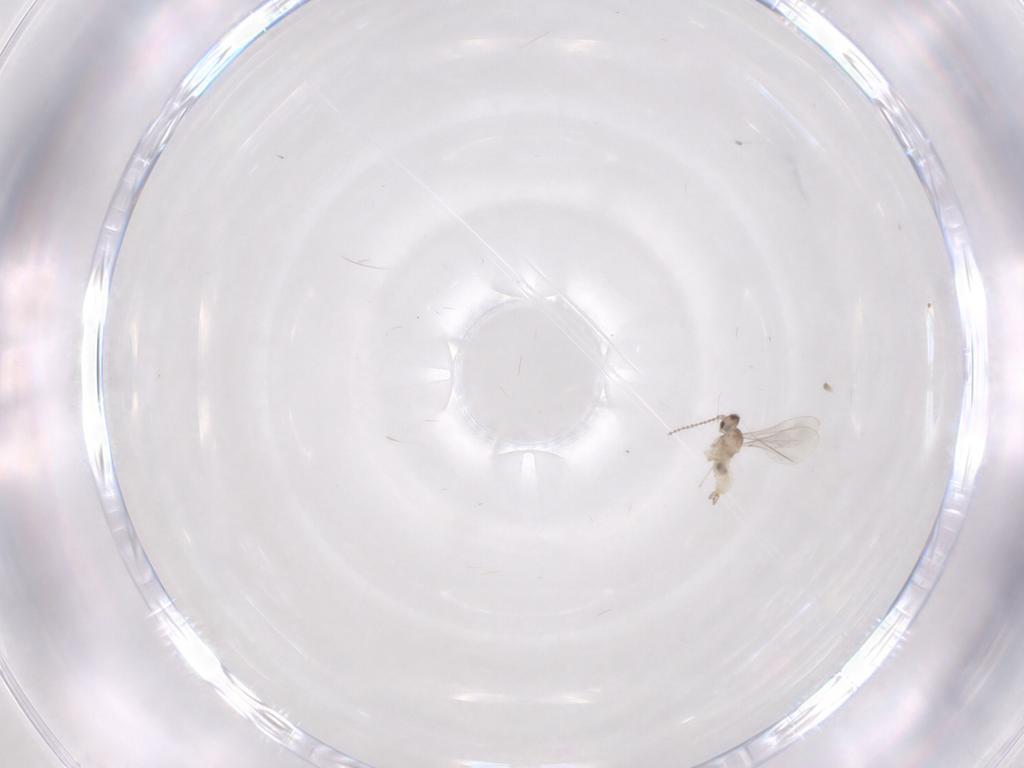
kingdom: Animalia
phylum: Arthropoda
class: Insecta
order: Diptera
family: Cecidomyiidae
